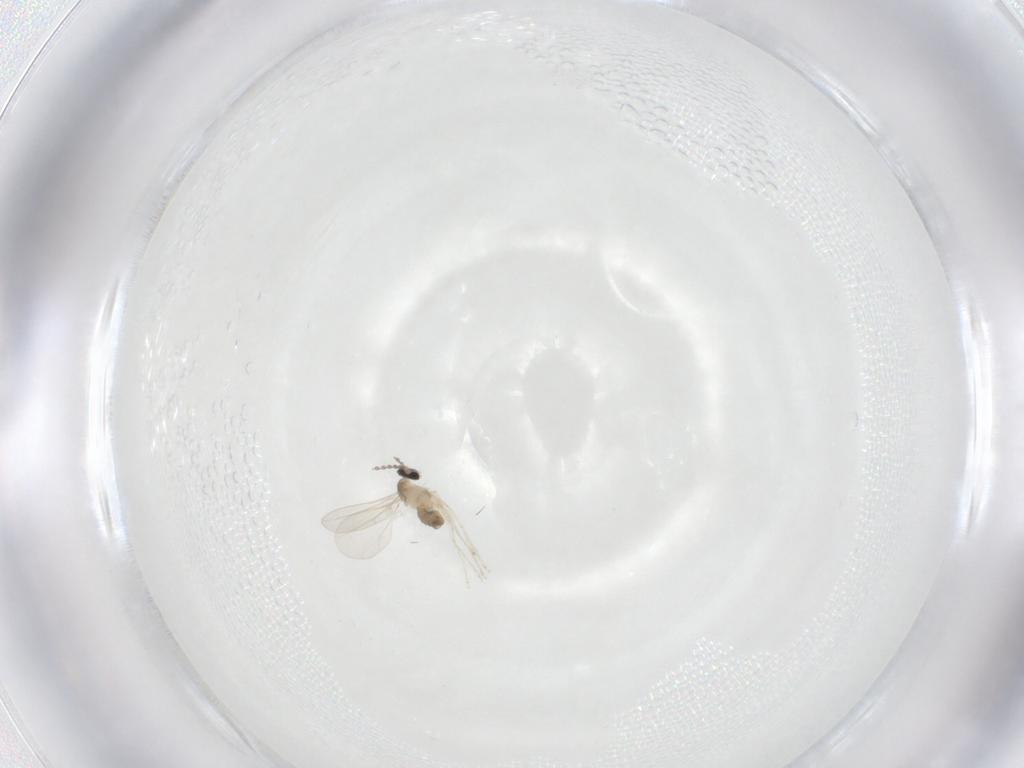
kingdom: Animalia
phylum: Arthropoda
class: Insecta
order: Diptera
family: Cecidomyiidae
